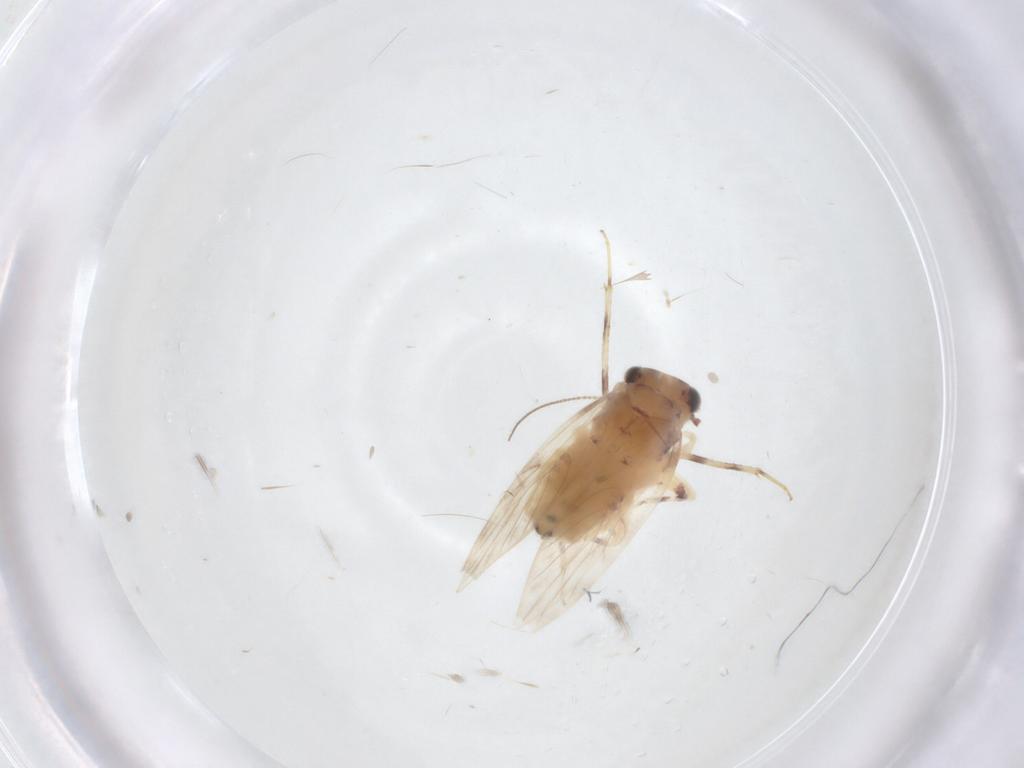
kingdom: Animalia
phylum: Arthropoda
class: Insecta
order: Psocodea
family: Lepidopsocidae
